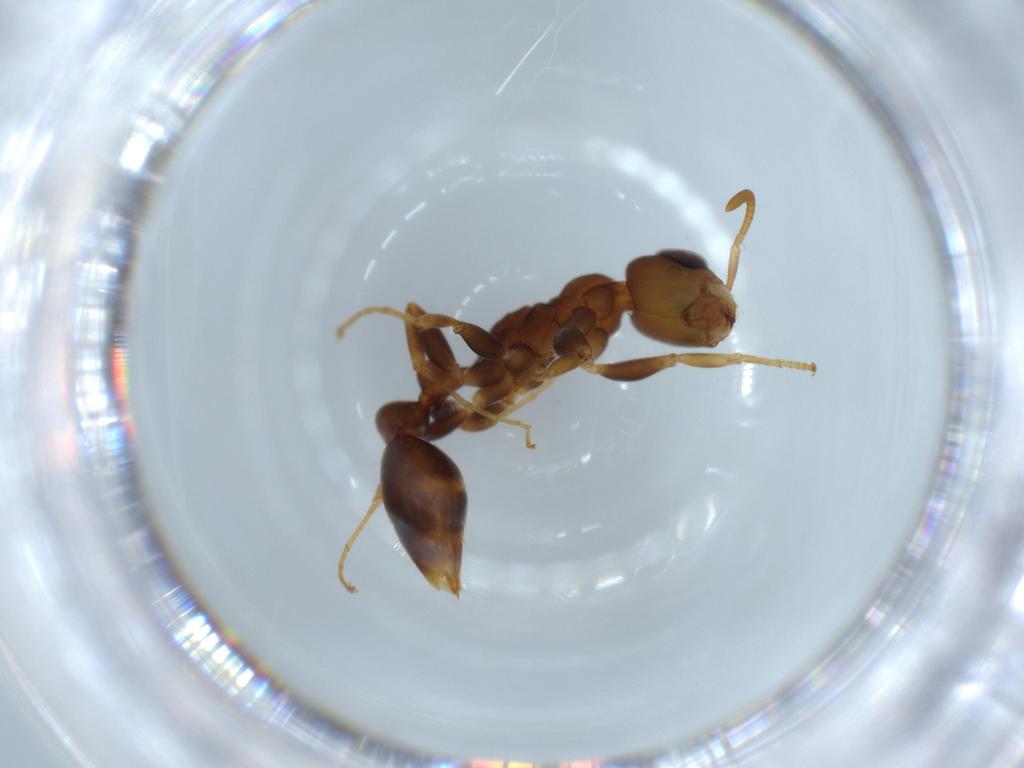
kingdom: Animalia
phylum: Arthropoda
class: Insecta
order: Hymenoptera
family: Formicidae
